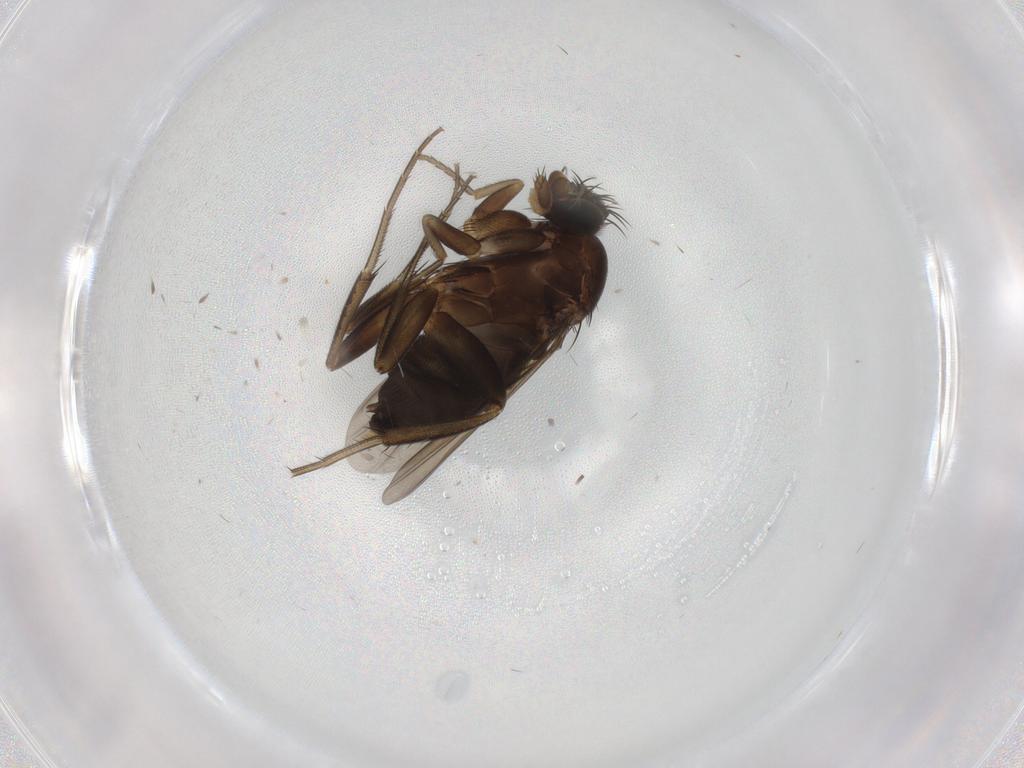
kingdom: Animalia
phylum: Arthropoda
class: Insecta
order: Diptera
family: Phoridae
